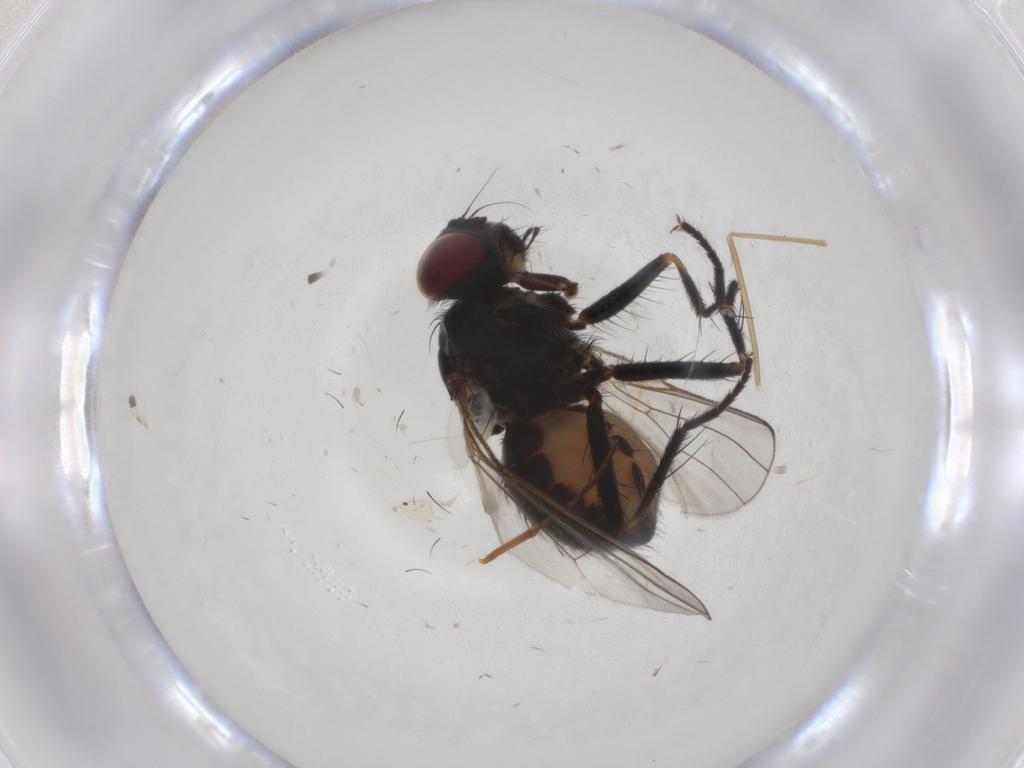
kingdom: Animalia
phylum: Arthropoda
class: Insecta
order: Diptera
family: Muscidae
